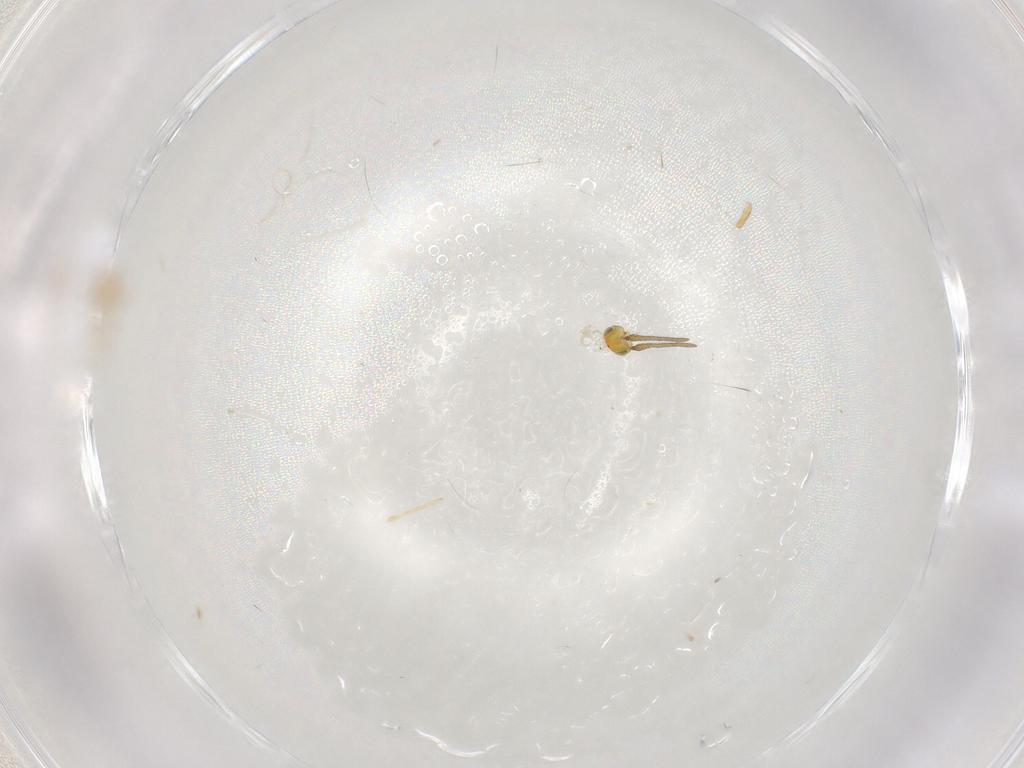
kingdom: Animalia
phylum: Arthropoda
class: Insecta
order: Hymenoptera
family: Aphelinidae
